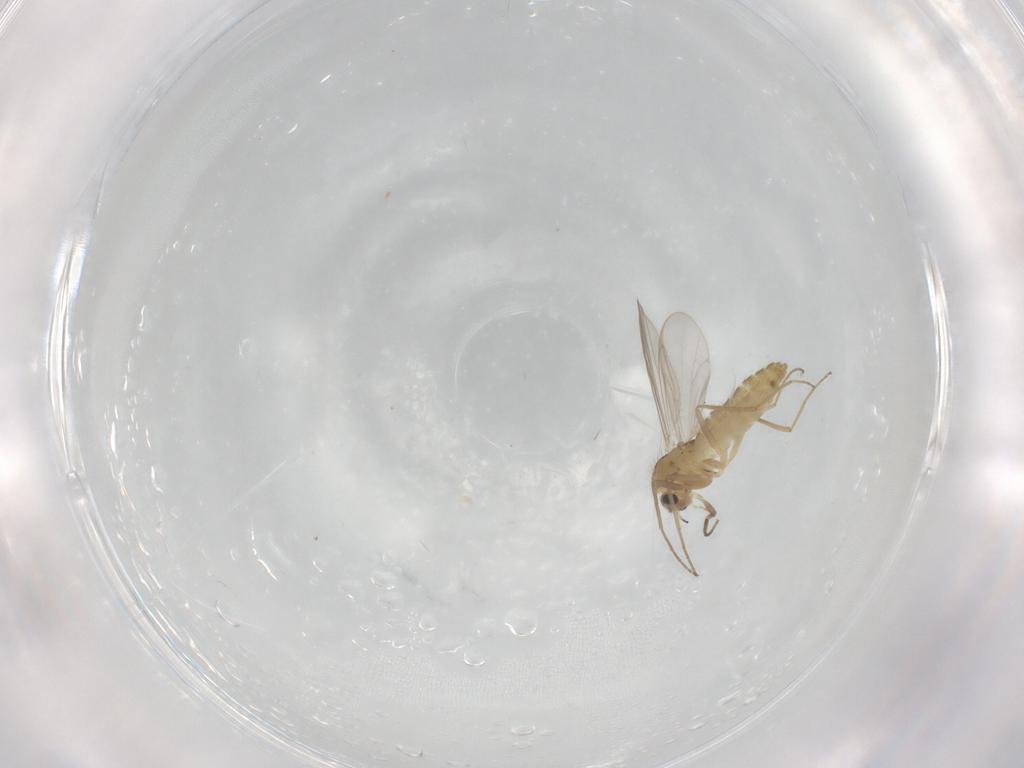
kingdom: Animalia
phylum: Arthropoda
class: Insecta
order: Diptera
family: Chironomidae
